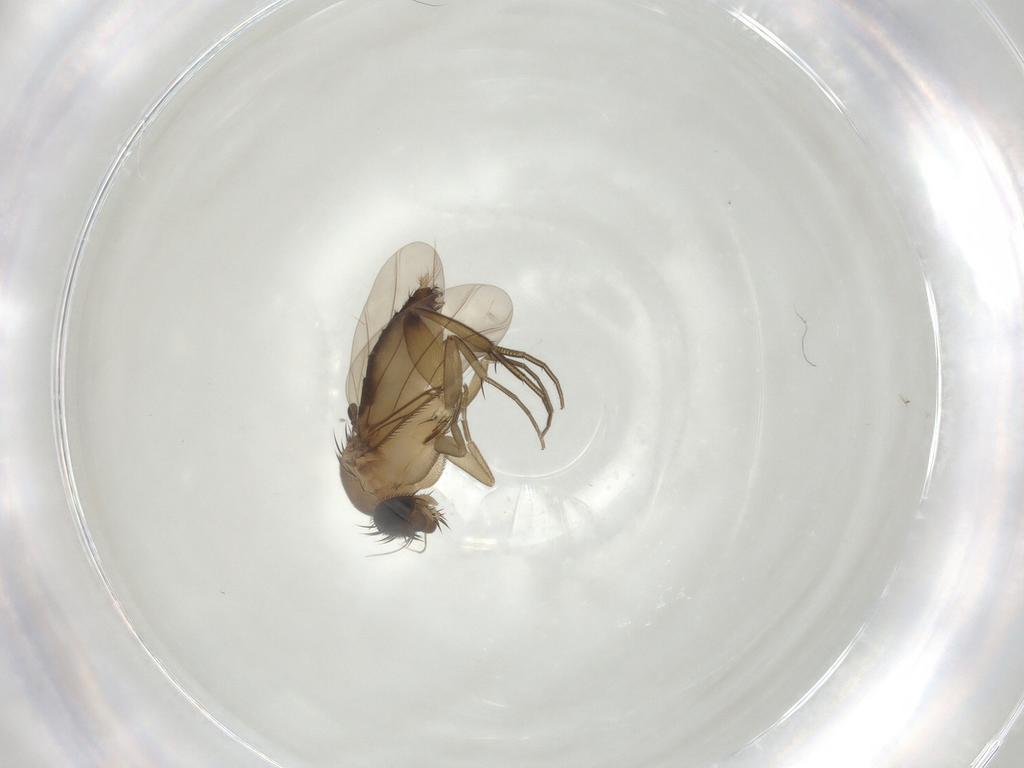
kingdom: Animalia
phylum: Arthropoda
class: Insecta
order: Diptera
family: Phoridae
